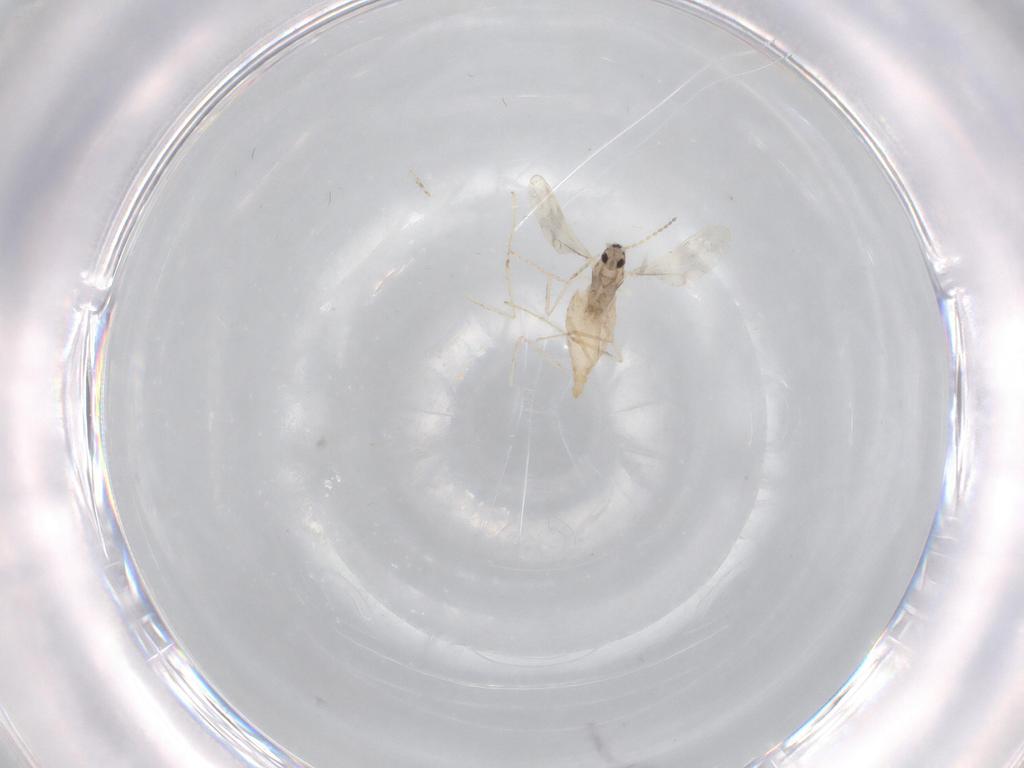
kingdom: Animalia
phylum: Arthropoda
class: Insecta
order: Diptera
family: Cecidomyiidae
